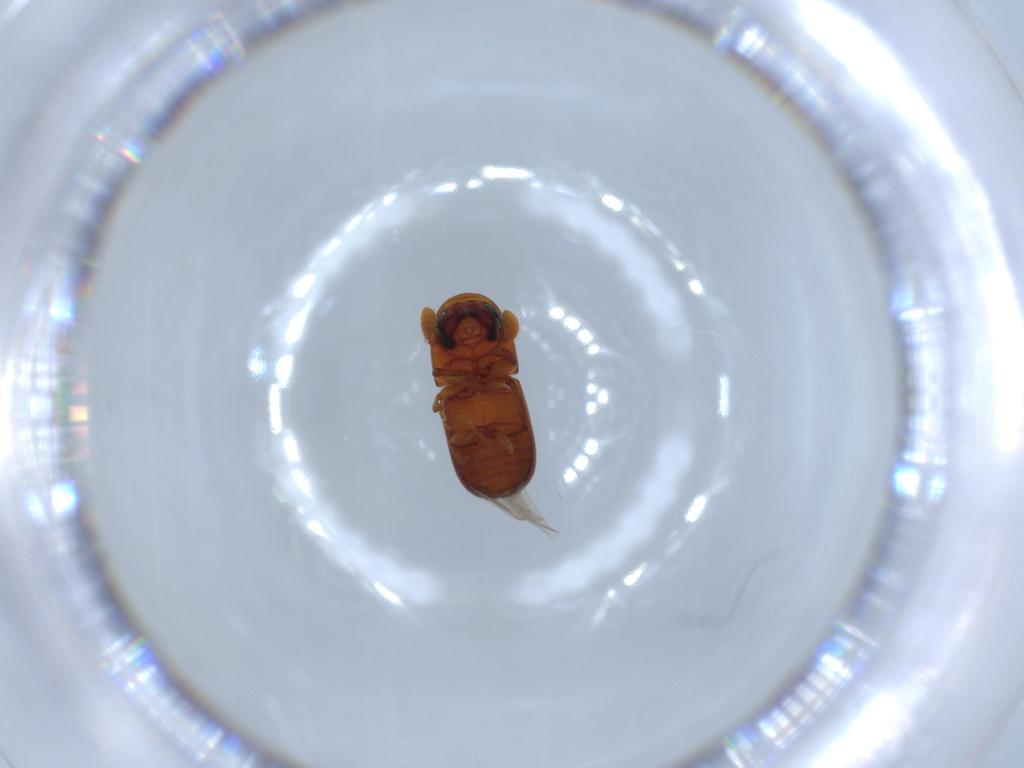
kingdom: Animalia
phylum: Arthropoda
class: Insecta
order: Coleoptera
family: Curculionidae
